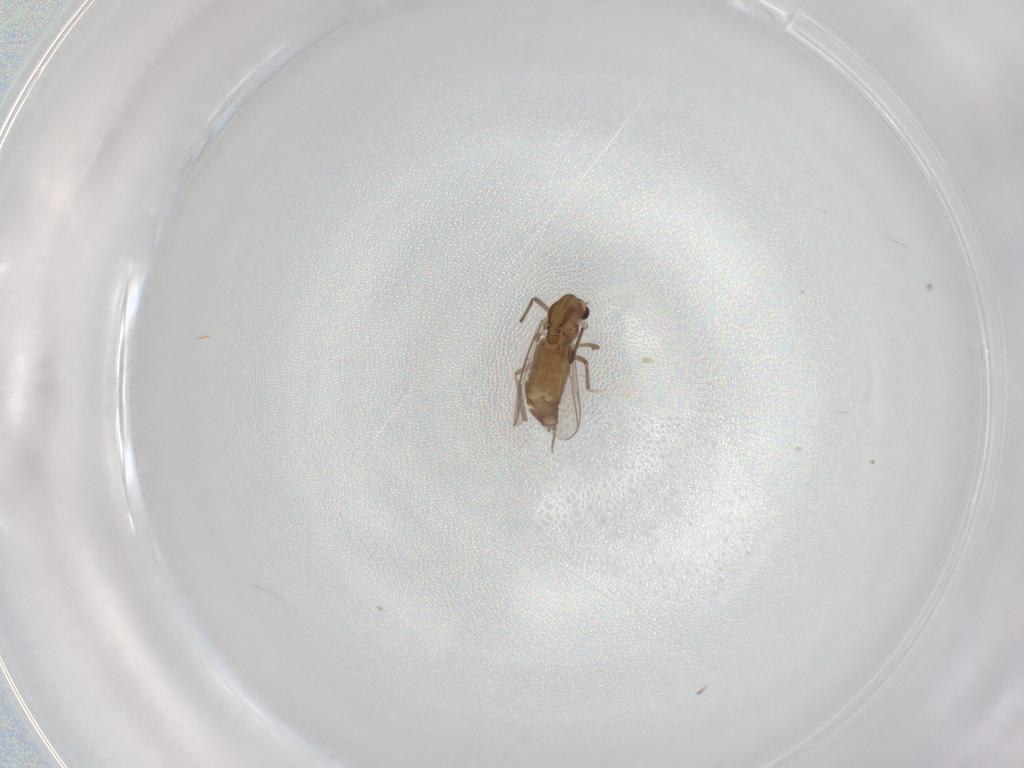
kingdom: Animalia
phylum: Arthropoda
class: Insecta
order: Diptera
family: Chironomidae
